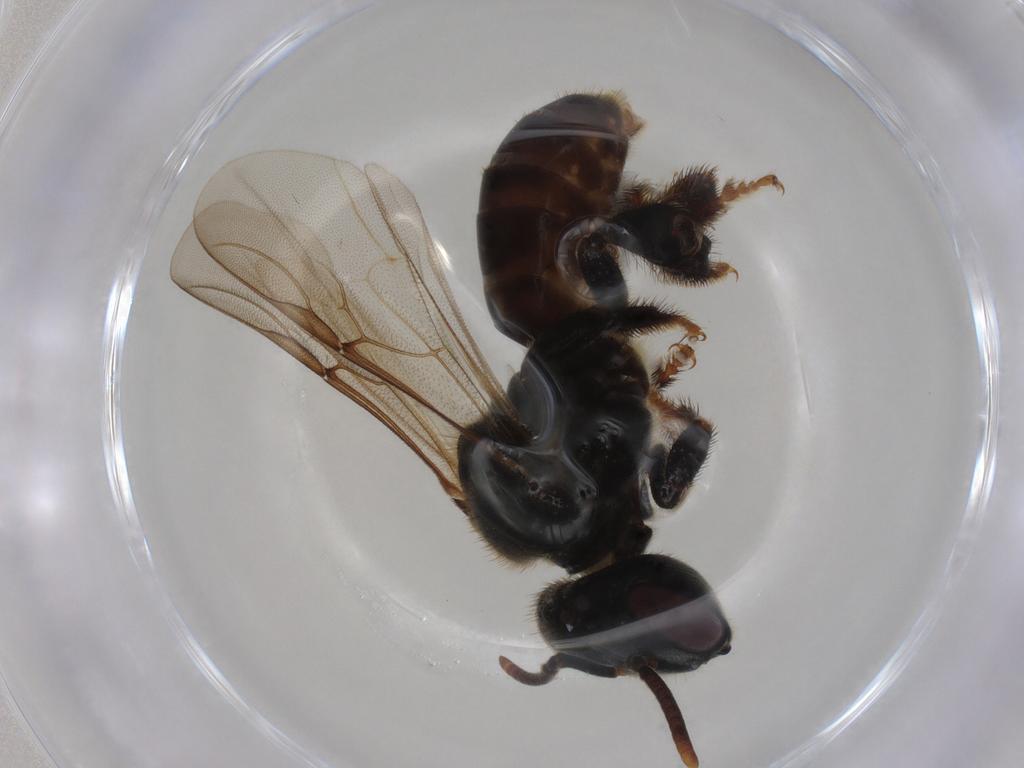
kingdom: Animalia
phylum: Arthropoda
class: Insecta
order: Hymenoptera
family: Apidae
